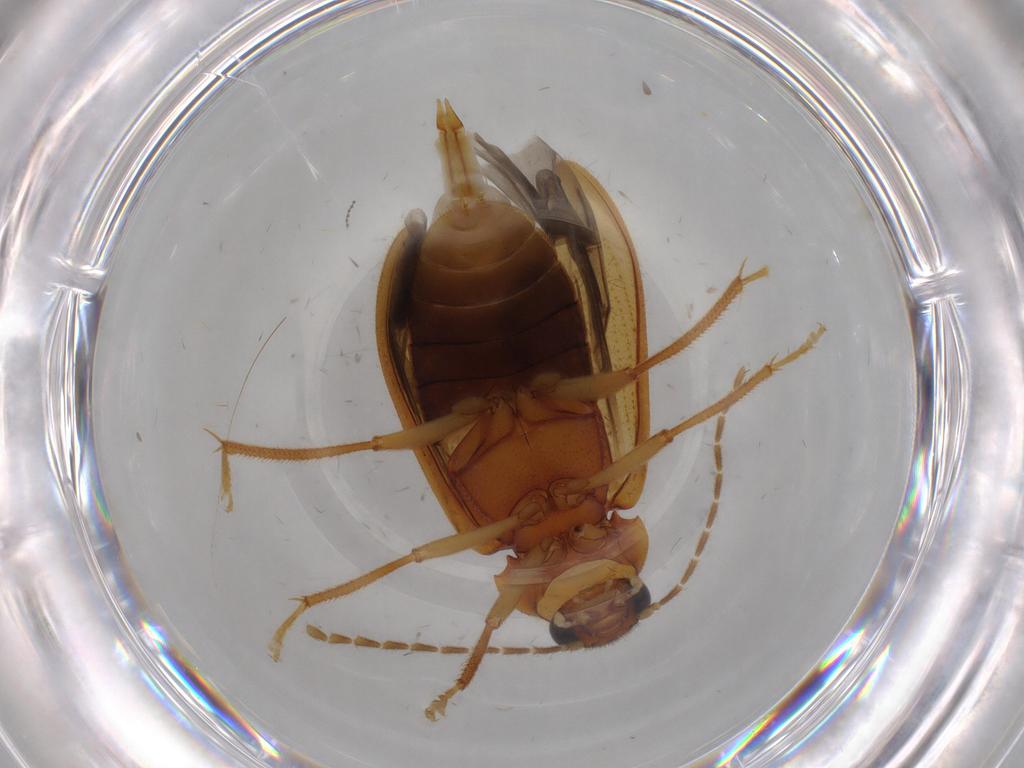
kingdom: Animalia
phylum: Arthropoda
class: Insecta
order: Coleoptera
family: Ptilodactylidae
